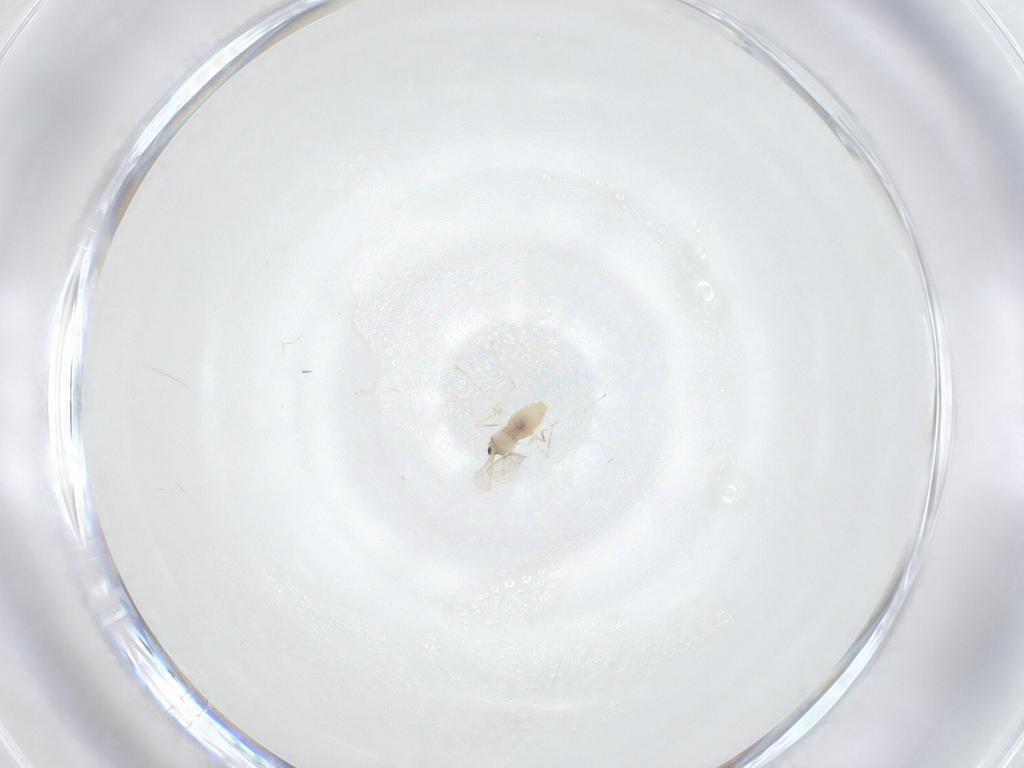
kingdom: Animalia
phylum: Arthropoda
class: Insecta
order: Diptera
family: Cecidomyiidae
